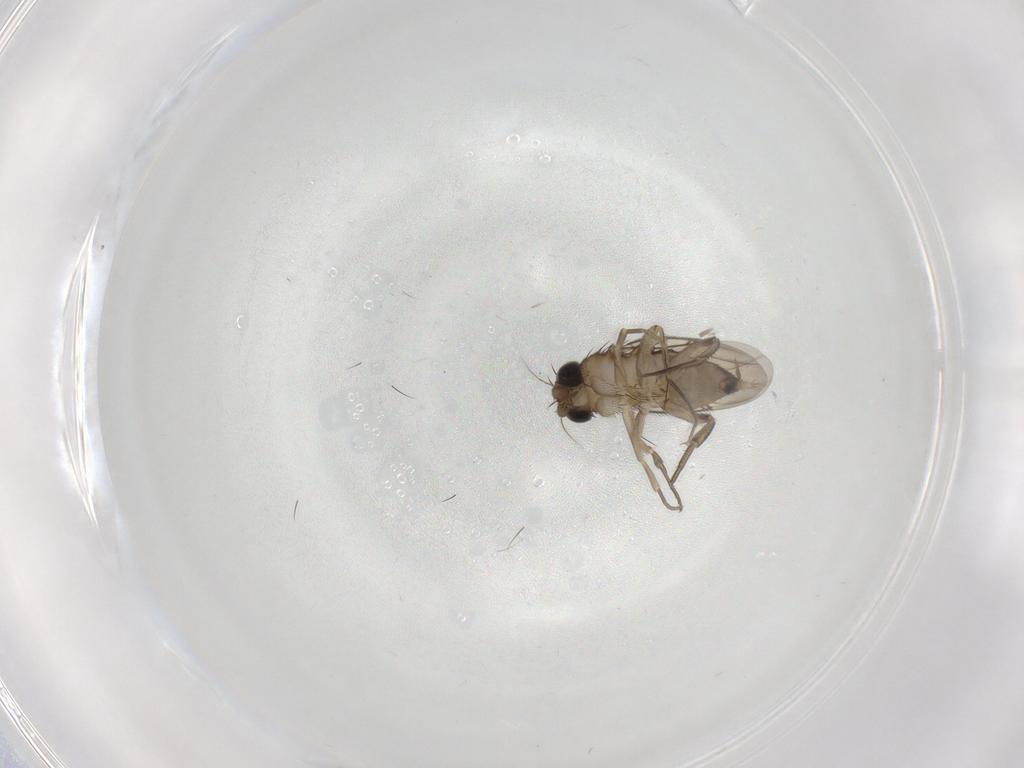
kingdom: Animalia
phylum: Arthropoda
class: Insecta
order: Diptera
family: Phoridae
